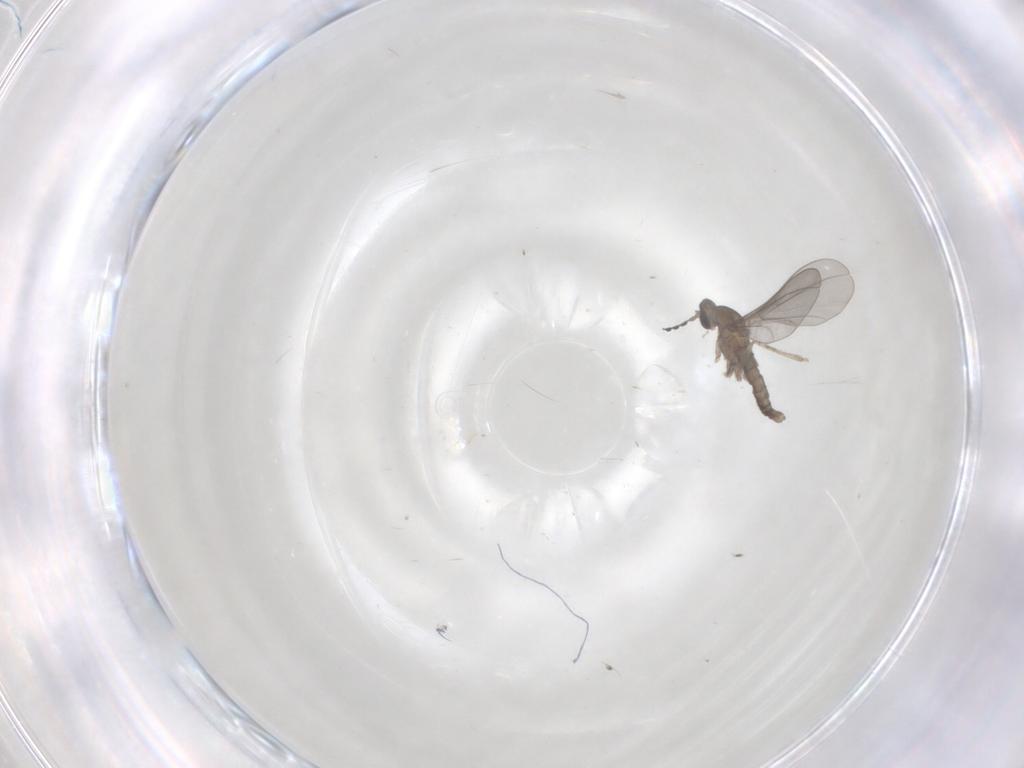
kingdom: Animalia
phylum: Arthropoda
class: Insecta
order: Diptera
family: Cecidomyiidae
